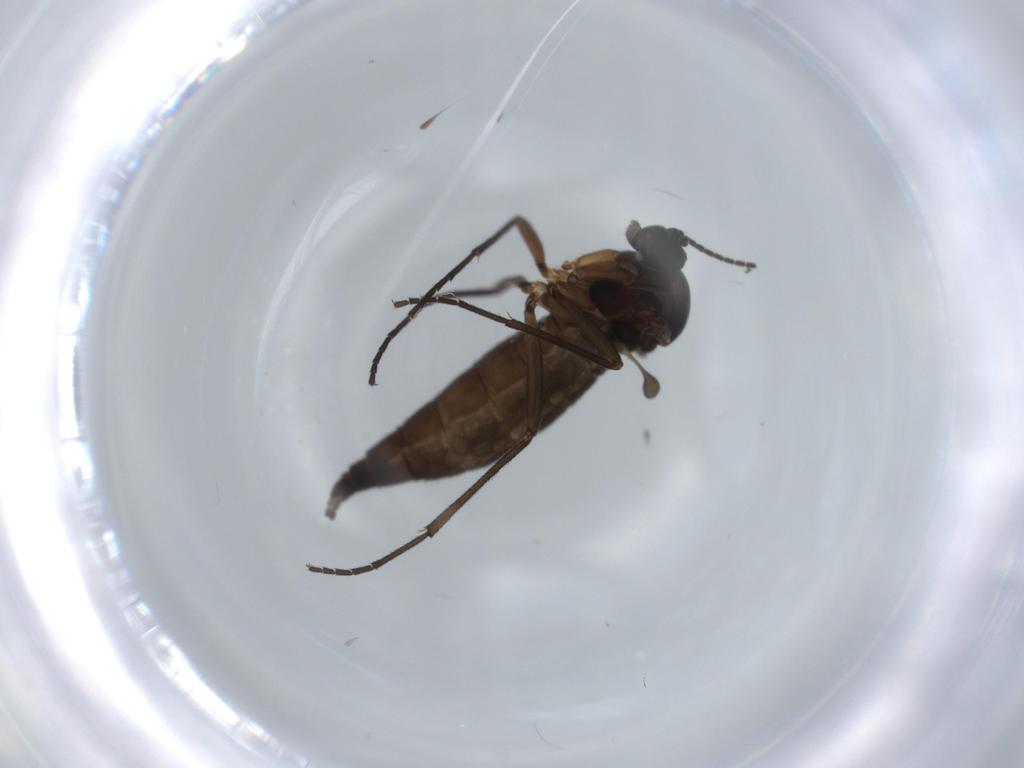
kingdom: Animalia
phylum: Arthropoda
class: Insecta
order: Diptera
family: Sciaridae
